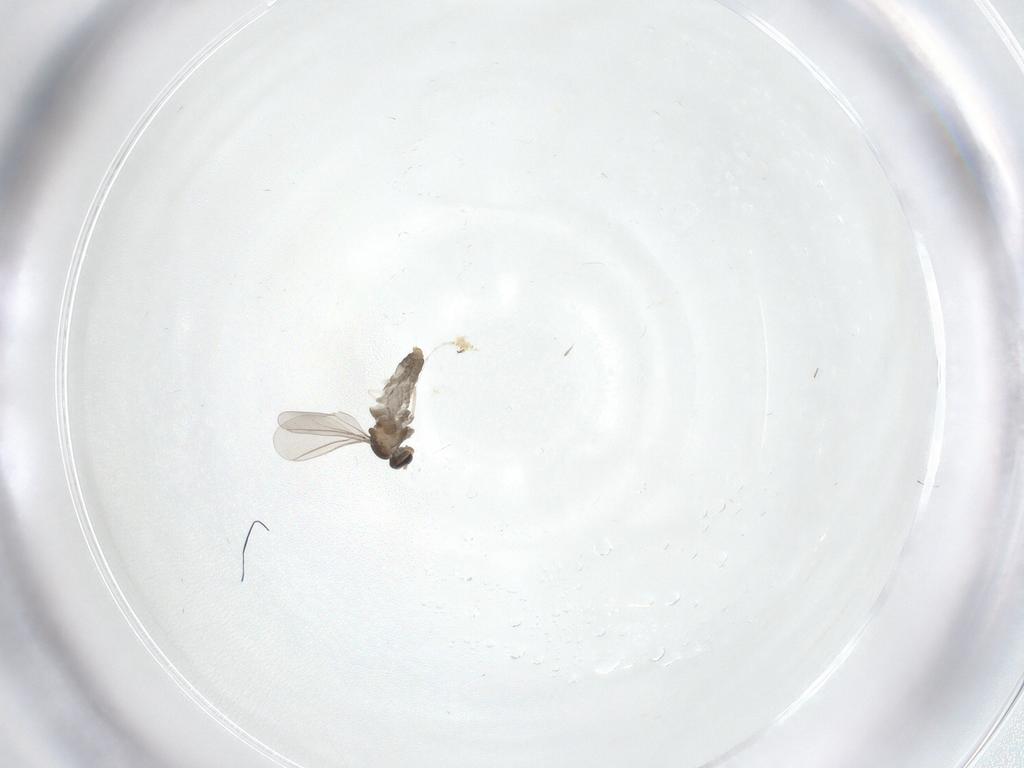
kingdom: Animalia
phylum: Arthropoda
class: Insecta
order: Diptera
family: Cecidomyiidae
